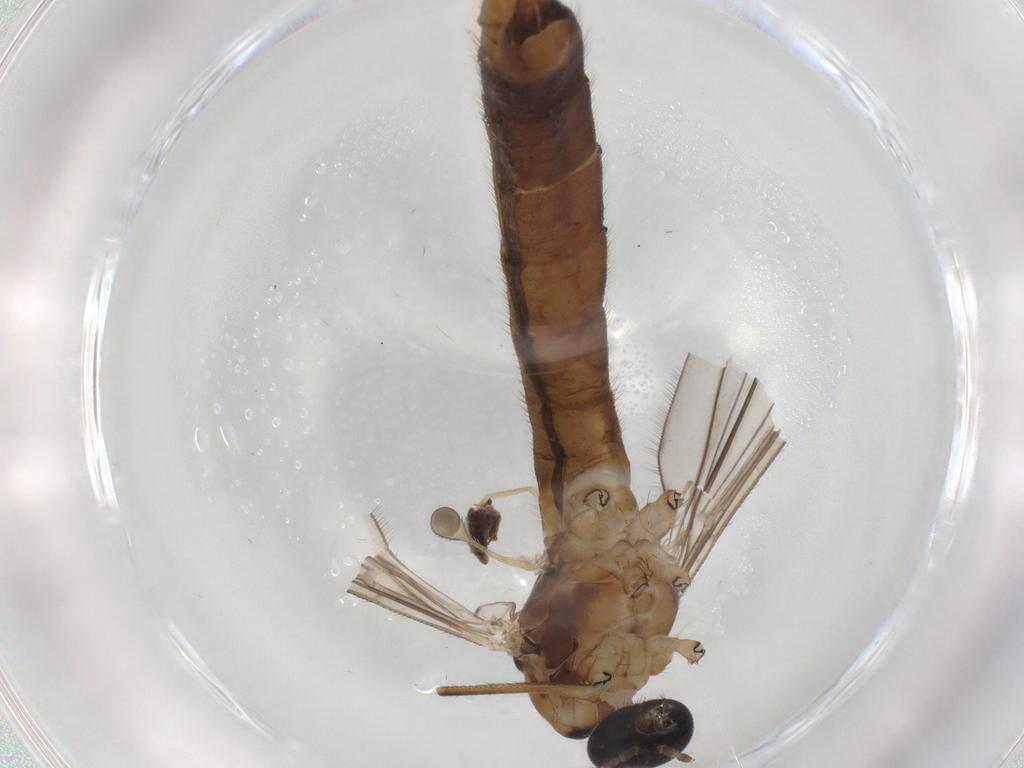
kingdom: Animalia
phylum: Arthropoda
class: Insecta
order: Diptera
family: Limoniidae
